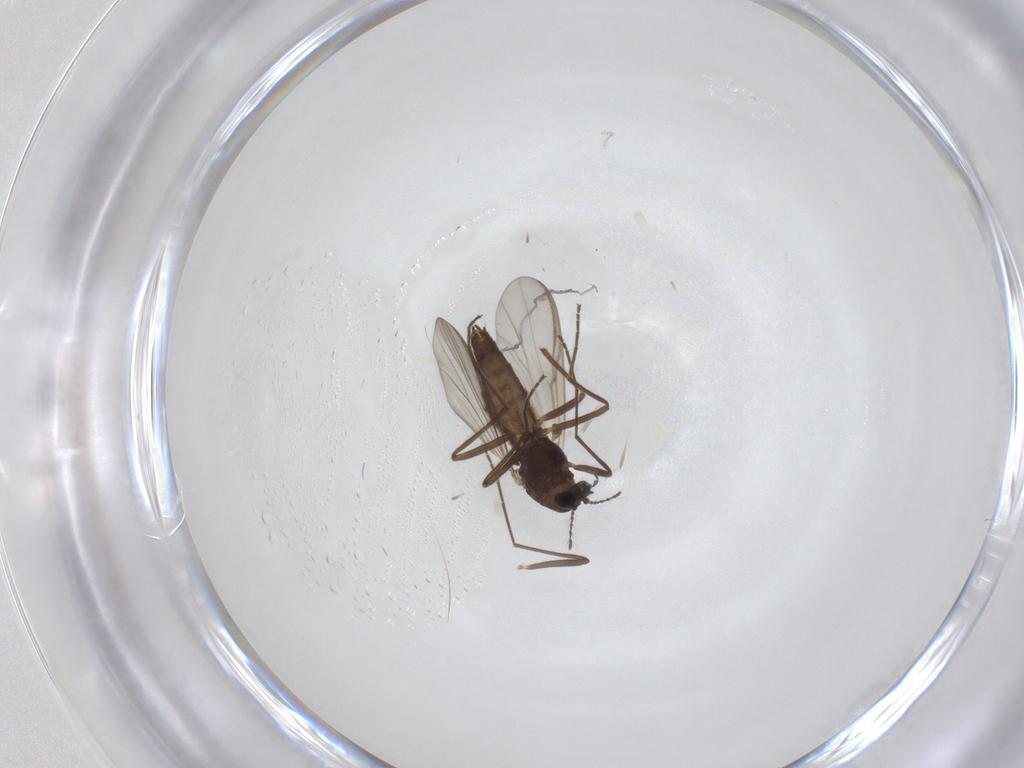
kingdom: Animalia
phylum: Arthropoda
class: Insecta
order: Diptera
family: Chironomidae
